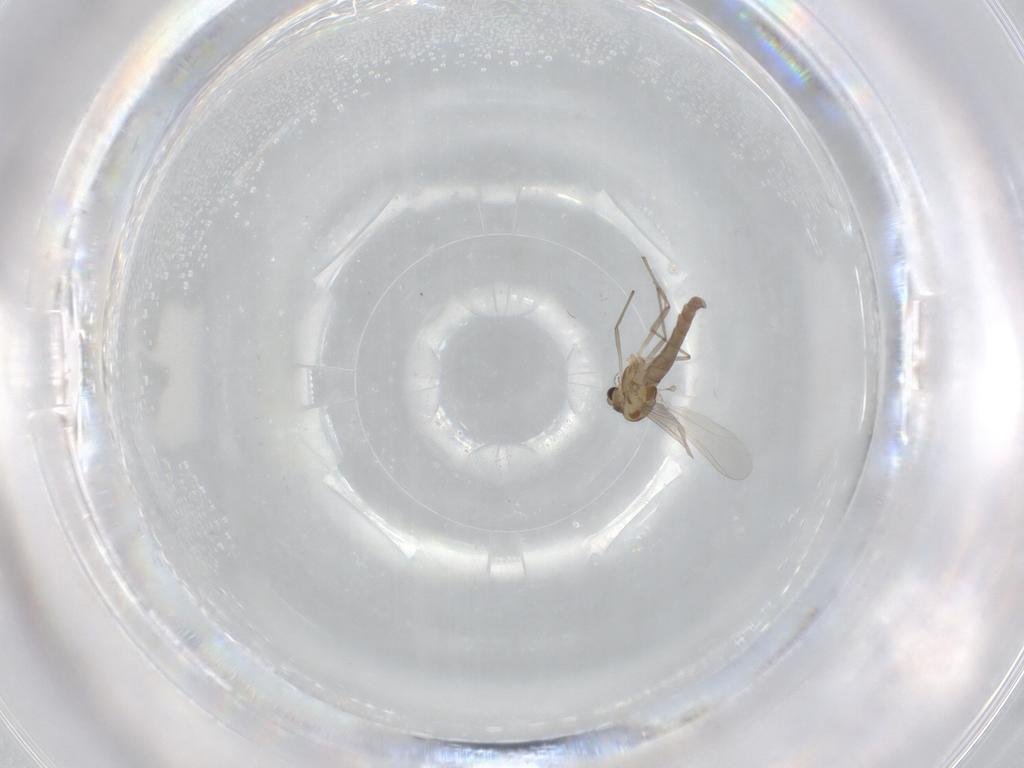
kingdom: Animalia
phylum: Arthropoda
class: Insecta
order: Diptera
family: Chironomidae
